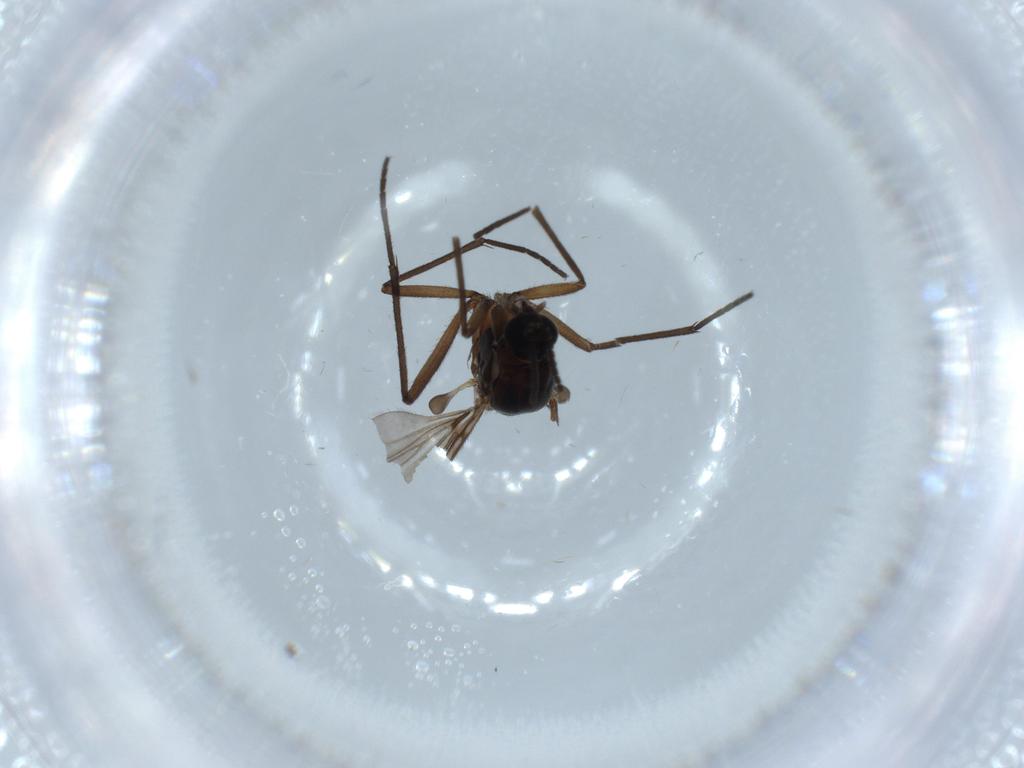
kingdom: Animalia
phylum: Arthropoda
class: Insecta
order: Diptera
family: Sciaridae
